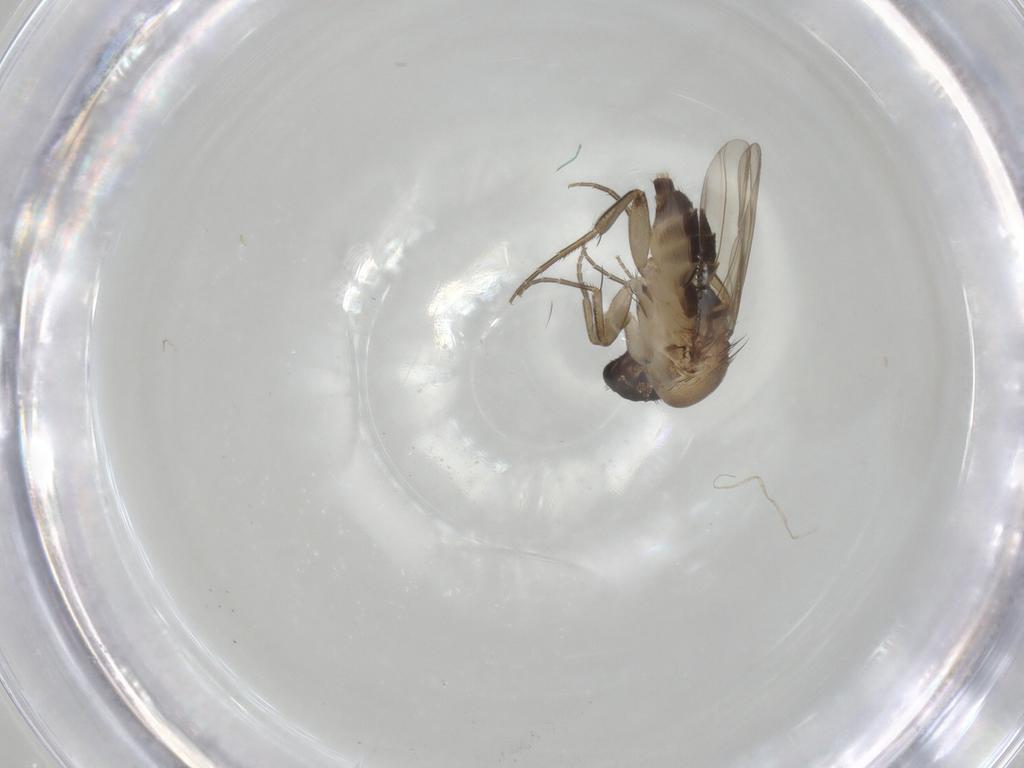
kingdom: Animalia
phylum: Arthropoda
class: Insecta
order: Diptera
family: Phoridae
